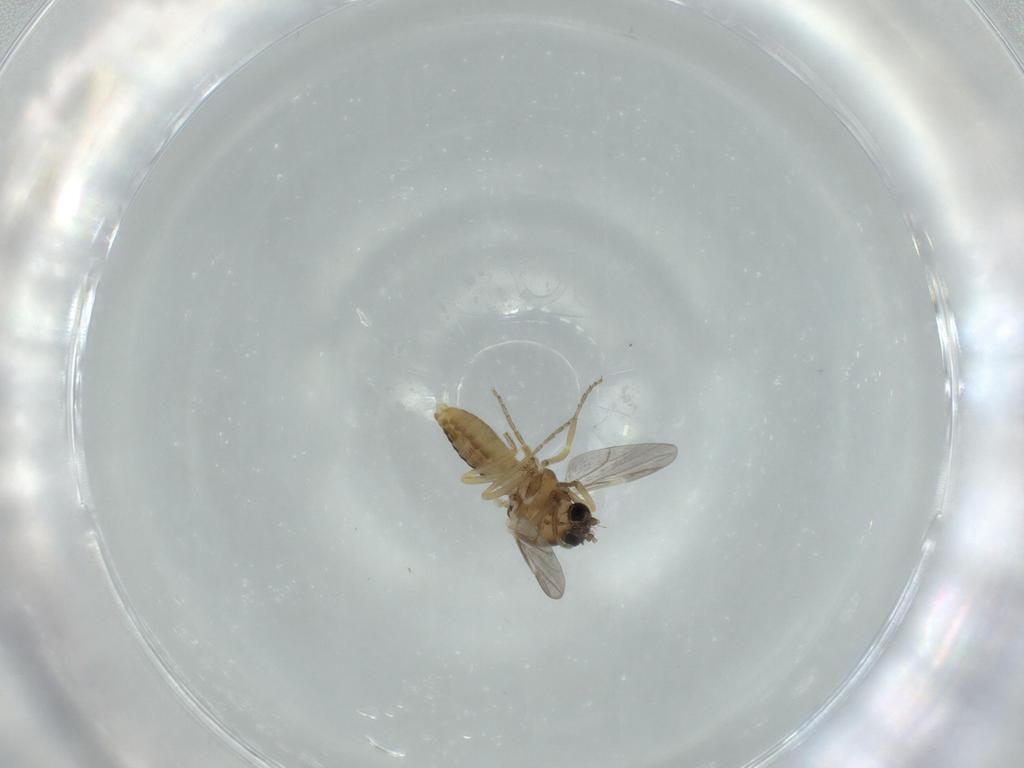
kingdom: Animalia
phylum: Arthropoda
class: Insecta
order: Diptera
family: Ceratopogonidae
